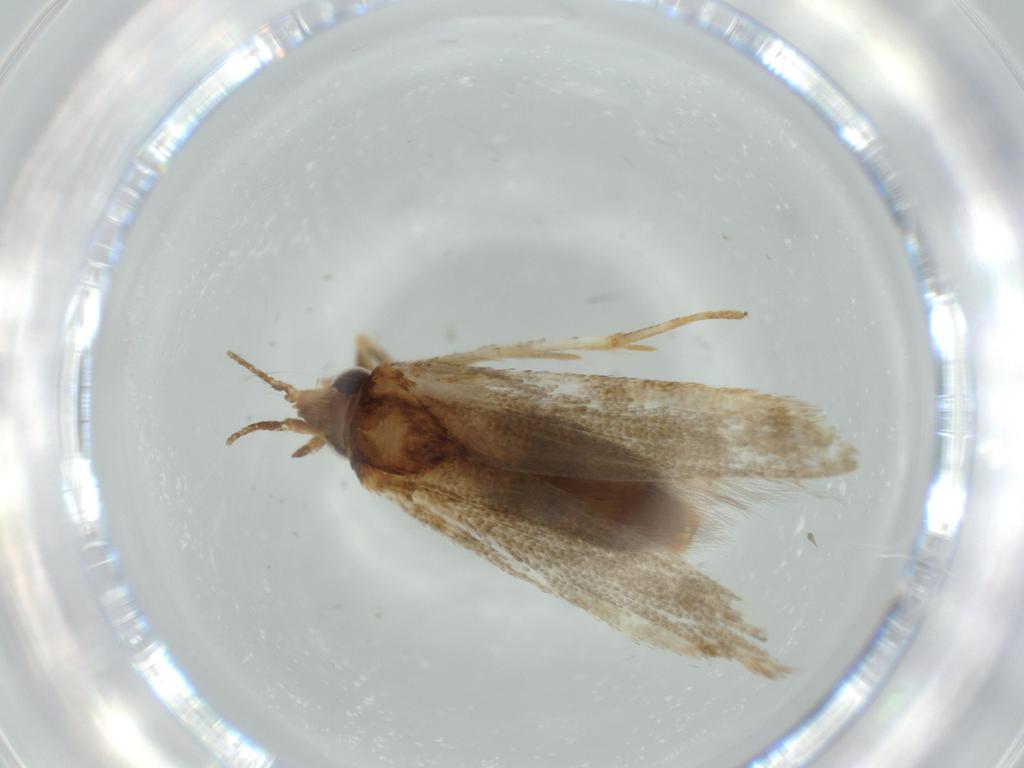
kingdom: Animalia
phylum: Arthropoda
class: Insecta
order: Lepidoptera
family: Coleophoridae
